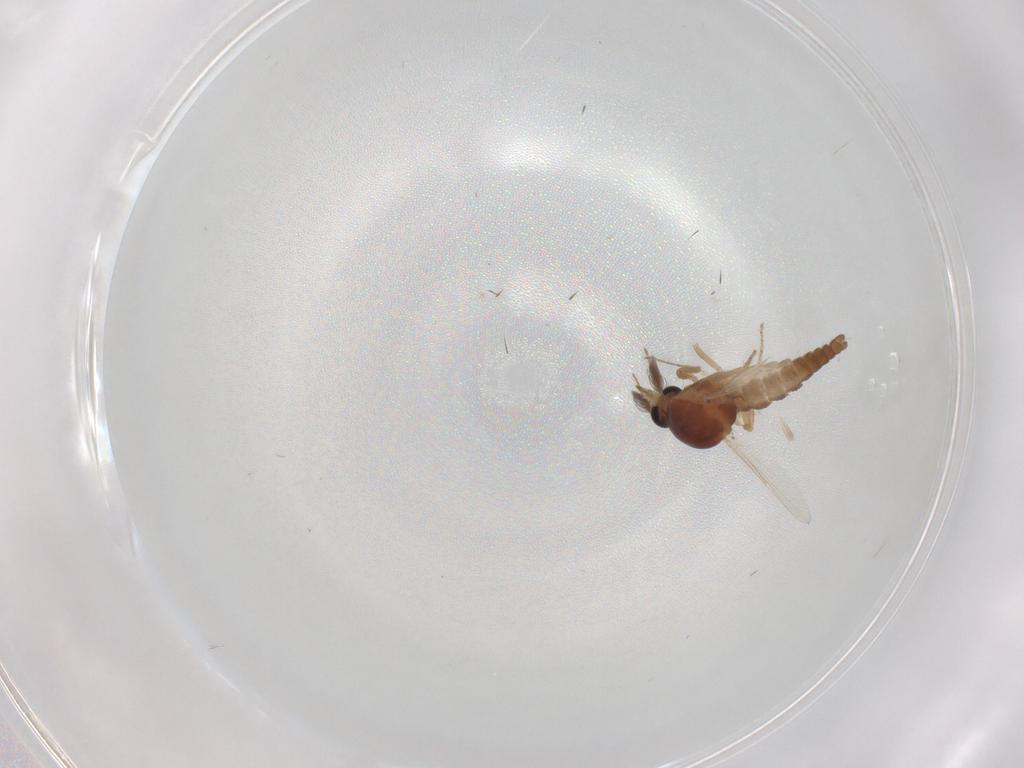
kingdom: Animalia
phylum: Arthropoda
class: Insecta
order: Diptera
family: Ceratopogonidae
